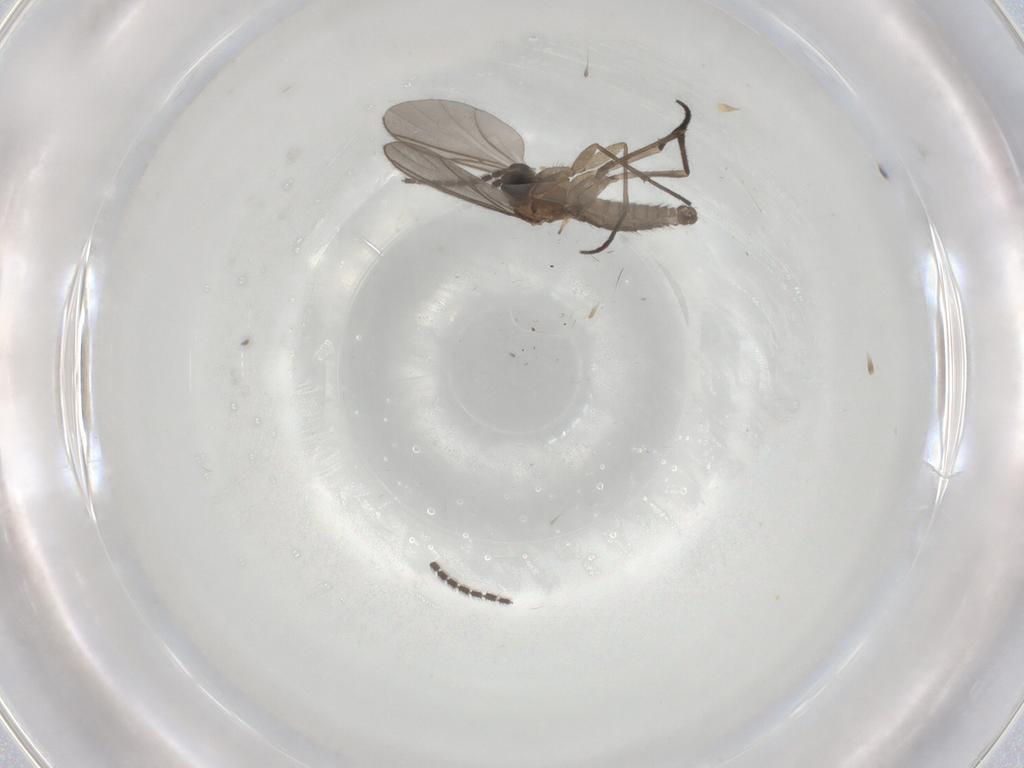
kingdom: Animalia
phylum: Arthropoda
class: Insecta
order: Diptera
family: Sciaridae
